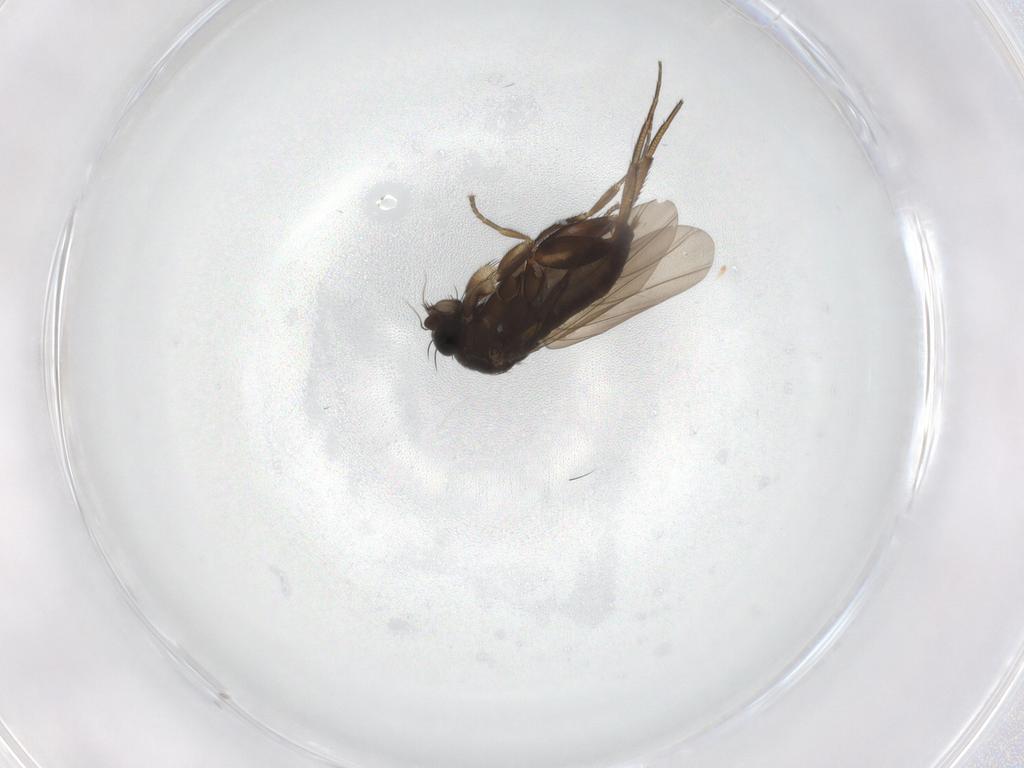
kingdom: Animalia
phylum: Arthropoda
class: Insecta
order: Diptera
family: Phoridae
